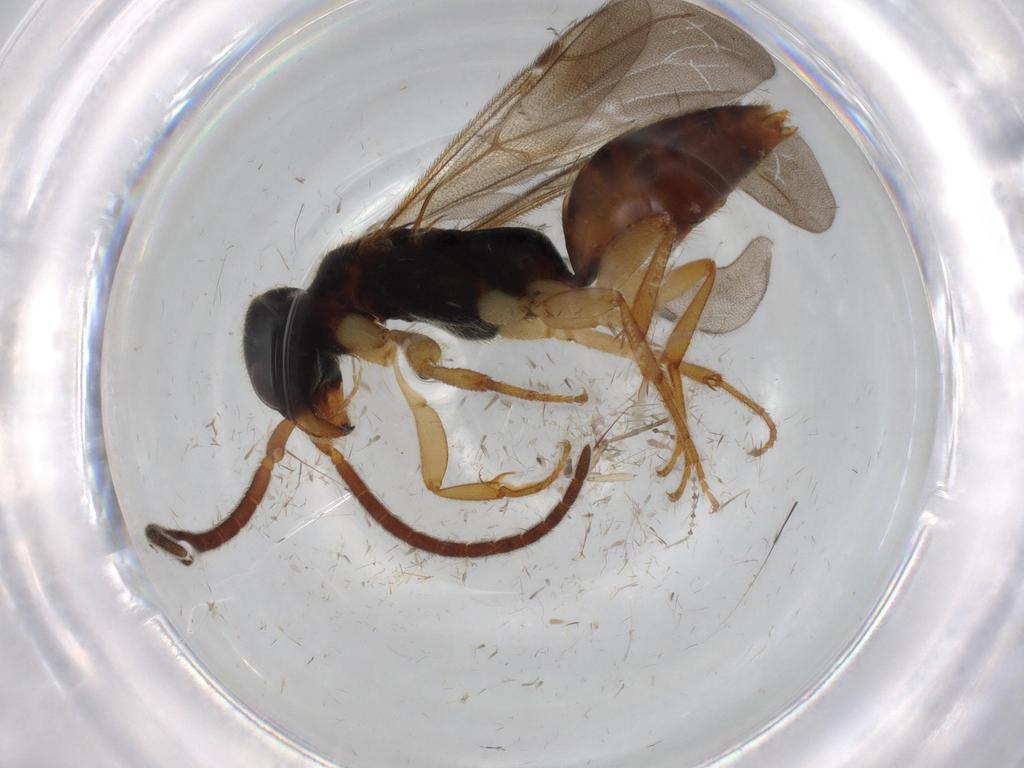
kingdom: Animalia
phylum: Arthropoda
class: Insecta
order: Hymenoptera
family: Bethylidae
